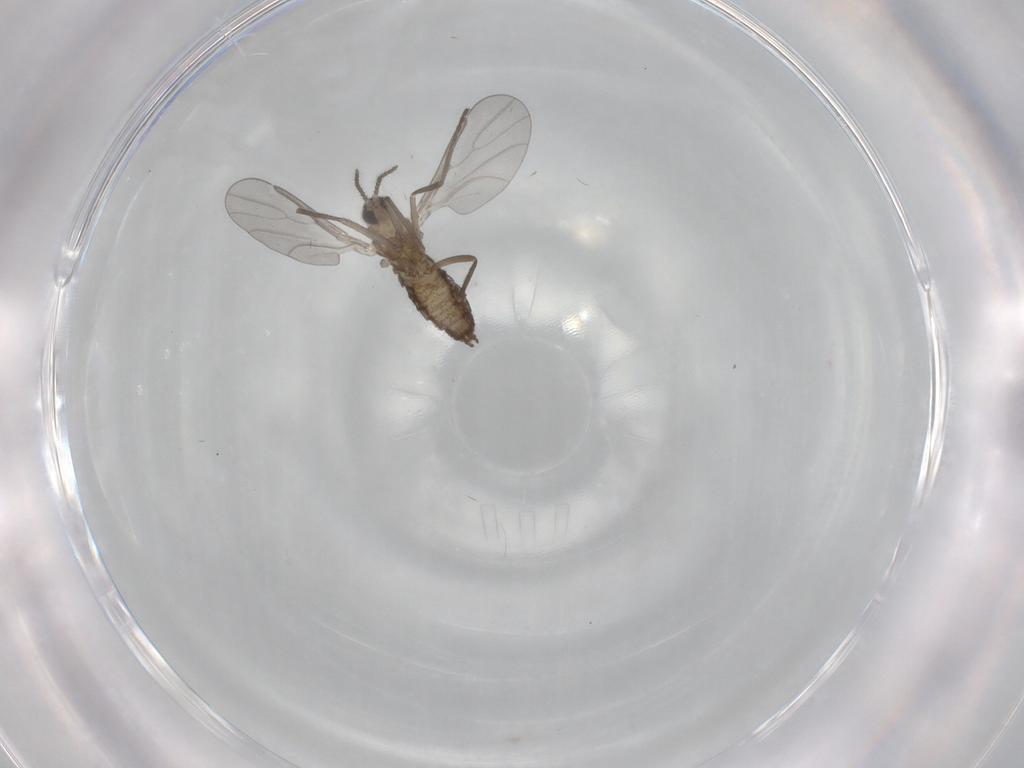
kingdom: Animalia
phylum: Arthropoda
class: Insecta
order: Diptera
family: Cecidomyiidae
